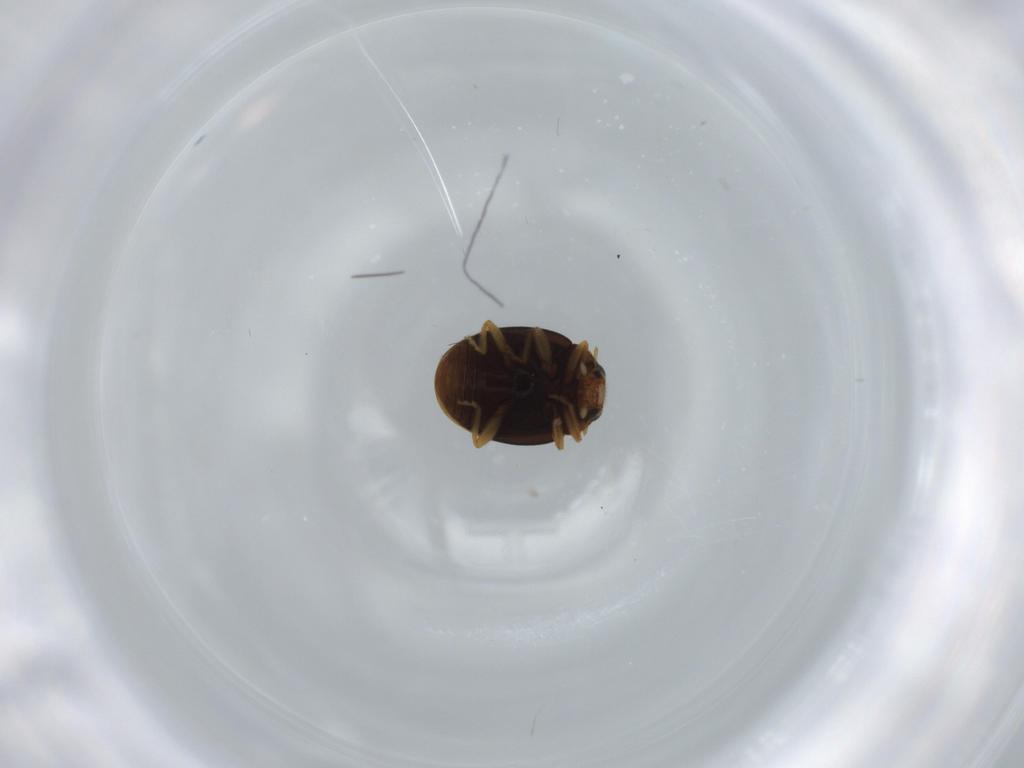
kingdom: Animalia
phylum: Arthropoda
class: Insecta
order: Coleoptera
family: Coccinellidae
